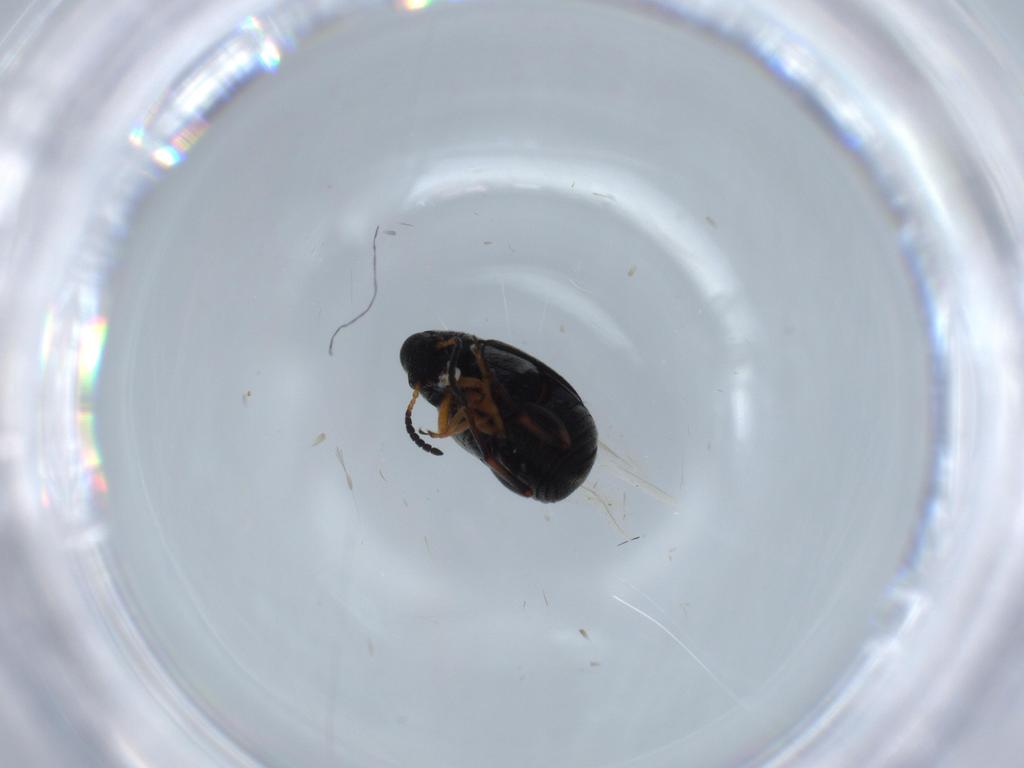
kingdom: Animalia
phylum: Arthropoda
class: Insecta
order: Coleoptera
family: Chrysomelidae
